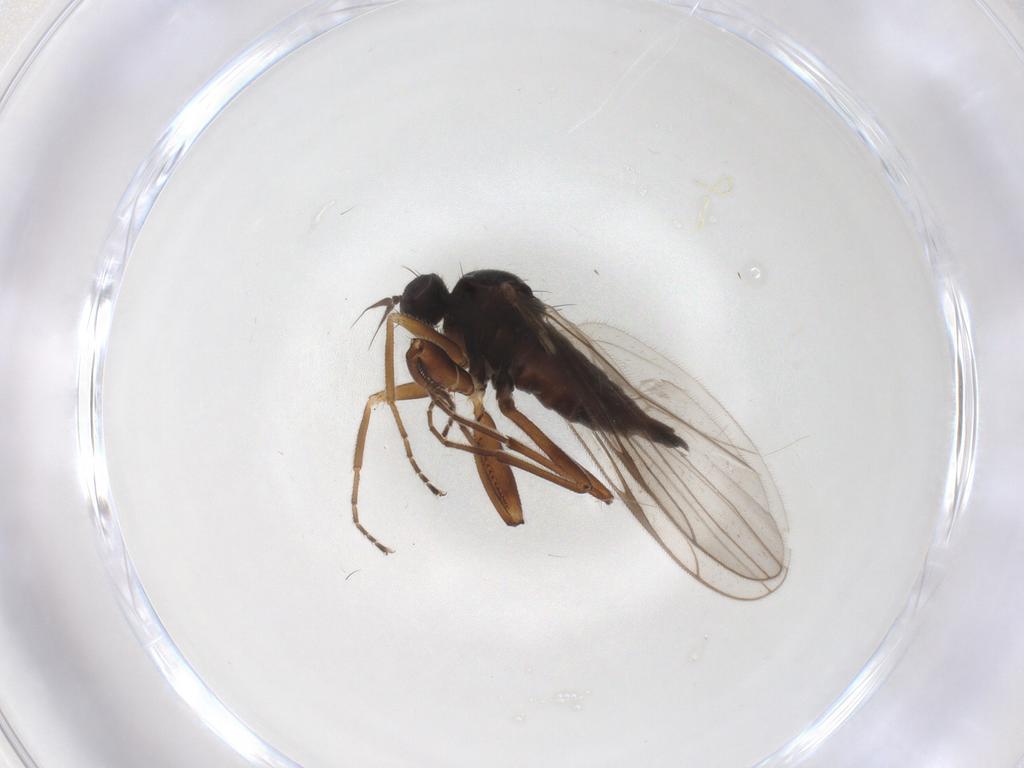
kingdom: Animalia
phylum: Arthropoda
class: Insecta
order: Diptera
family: Hybotidae
